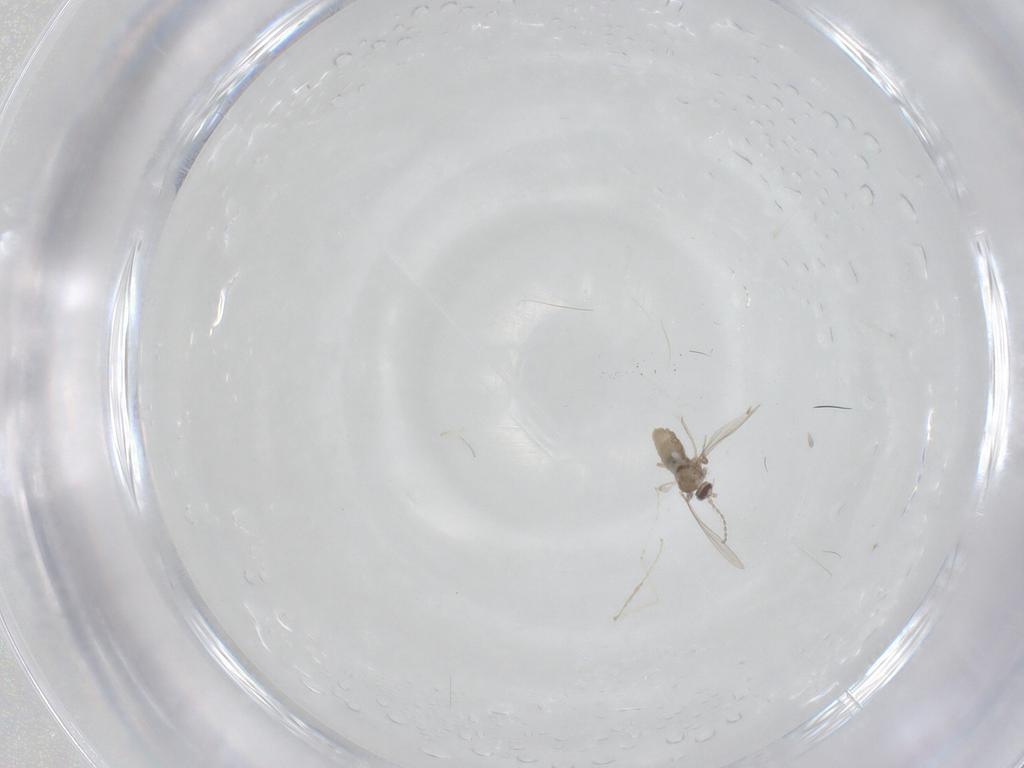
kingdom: Animalia
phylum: Arthropoda
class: Insecta
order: Diptera
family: Cecidomyiidae
